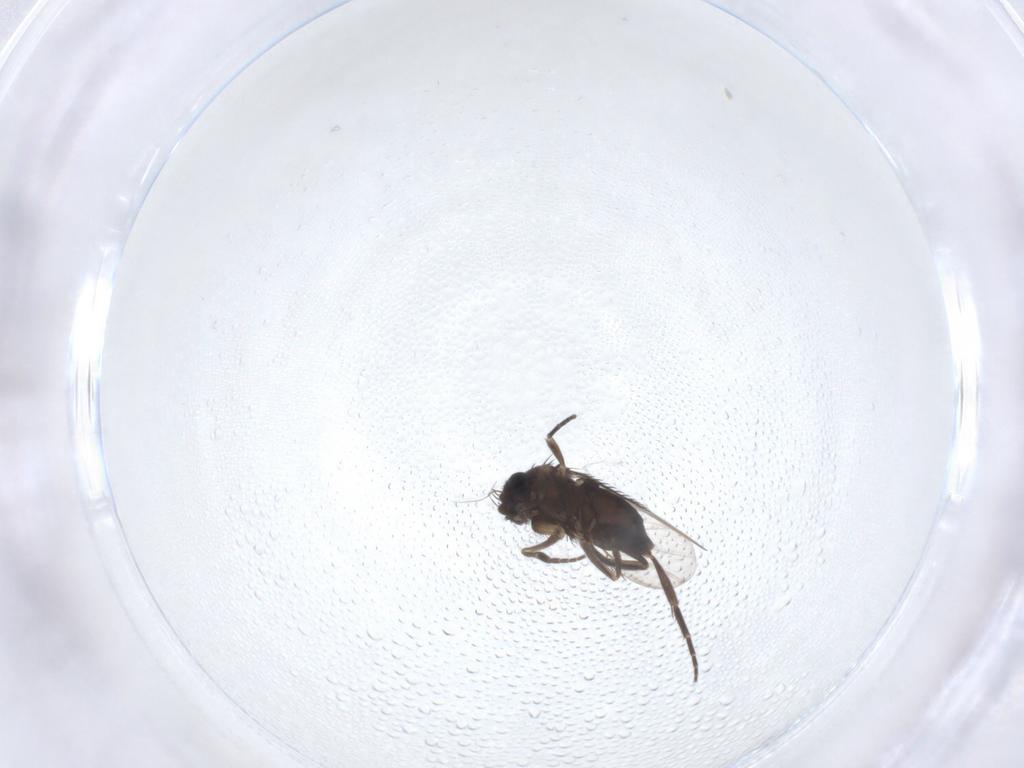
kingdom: Animalia
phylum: Arthropoda
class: Insecta
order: Diptera
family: Phoridae
